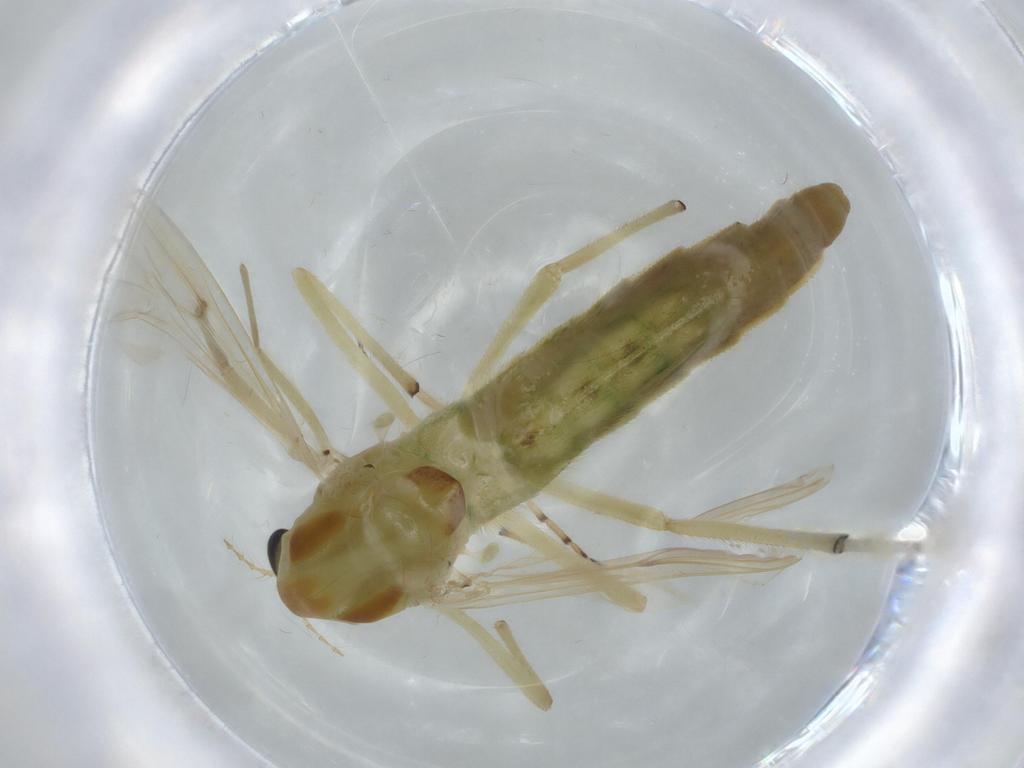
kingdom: Animalia
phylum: Arthropoda
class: Insecta
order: Diptera
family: Chironomidae
